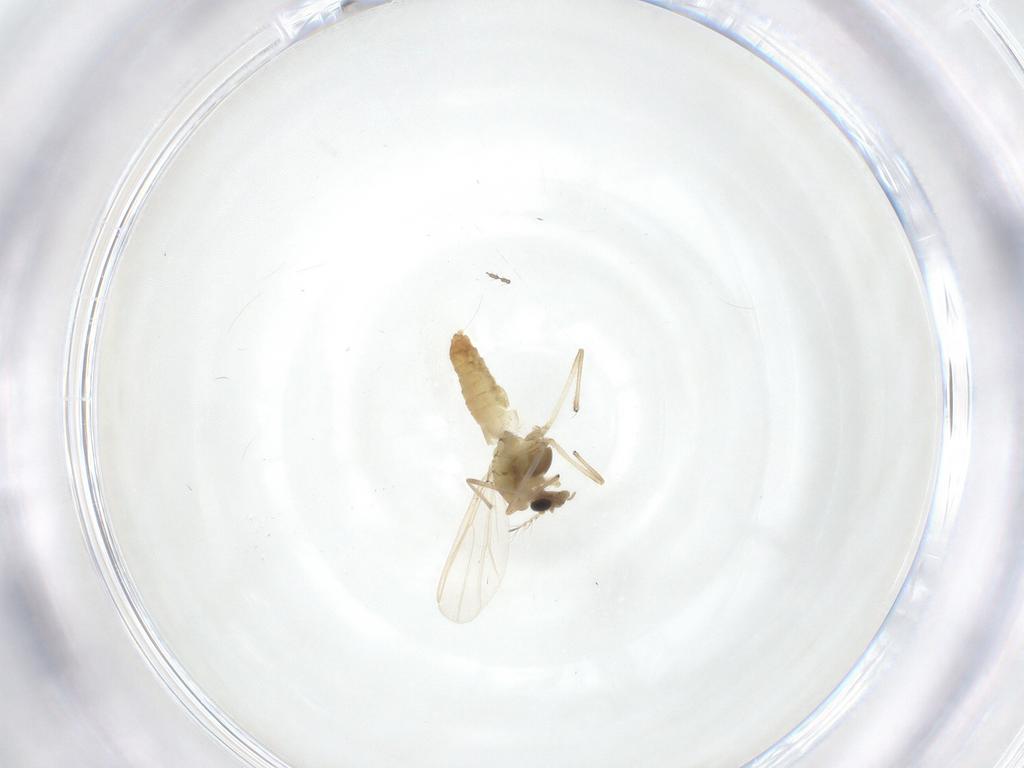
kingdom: Animalia
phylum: Arthropoda
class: Insecta
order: Diptera
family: Chironomidae
